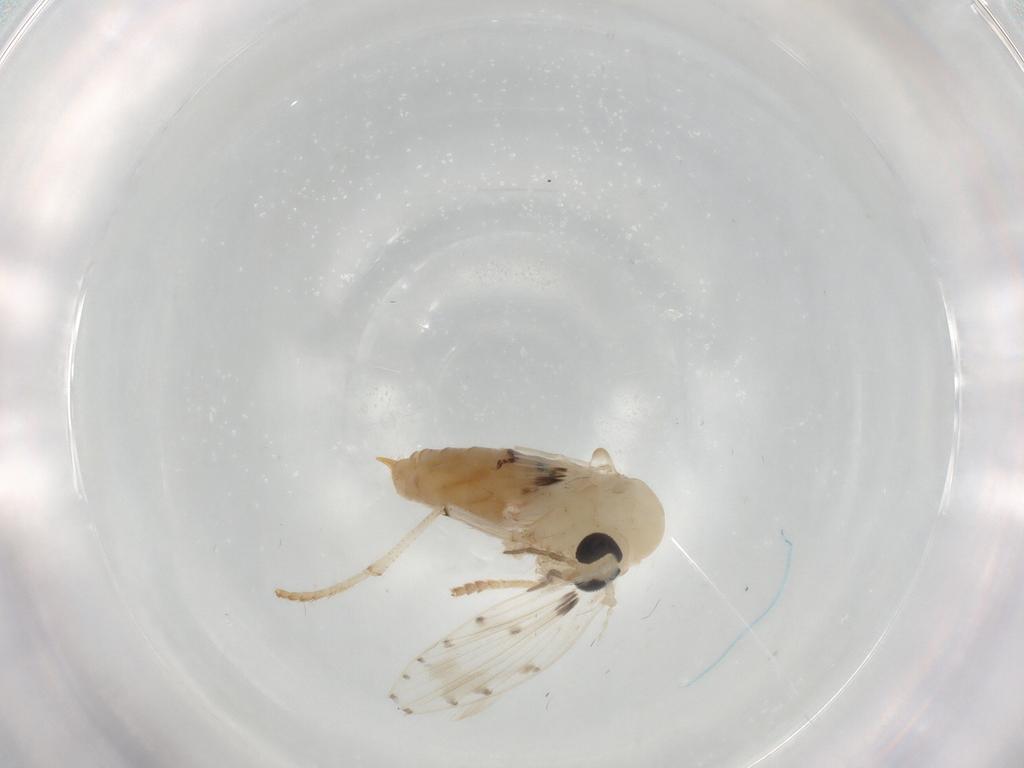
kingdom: Animalia
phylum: Arthropoda
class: Insecta
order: Diptera
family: Psychodidae
